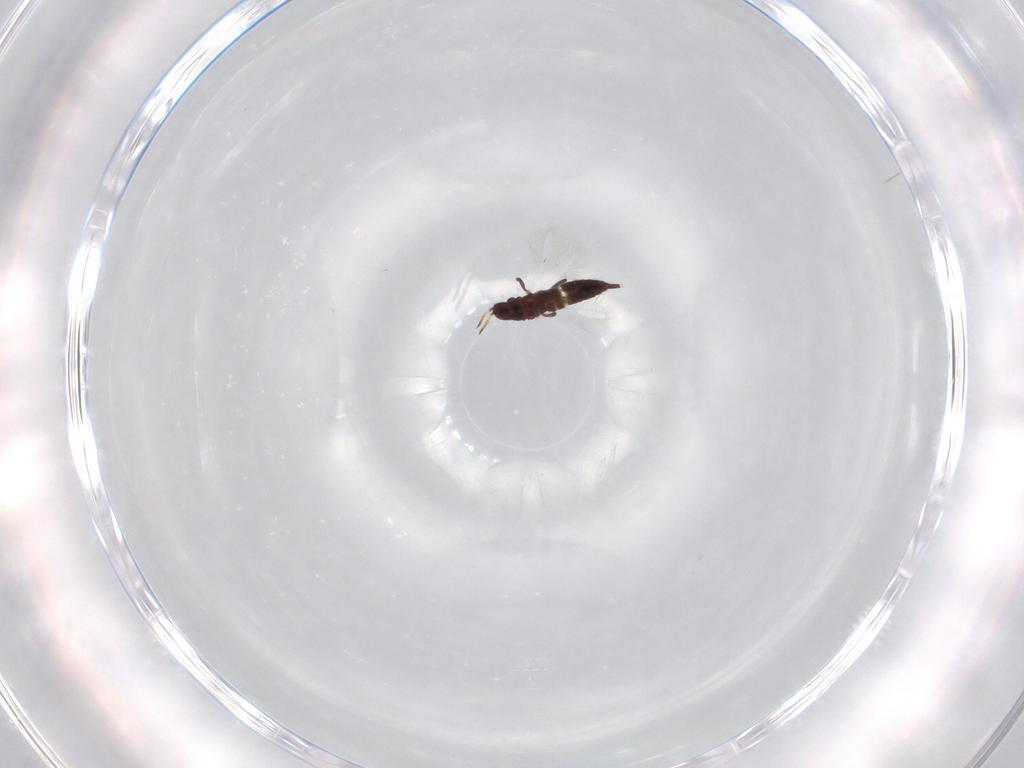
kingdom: Animalia
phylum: Arthropoda
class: Insecta
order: Thysanoptera
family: Phlaeothripidae
